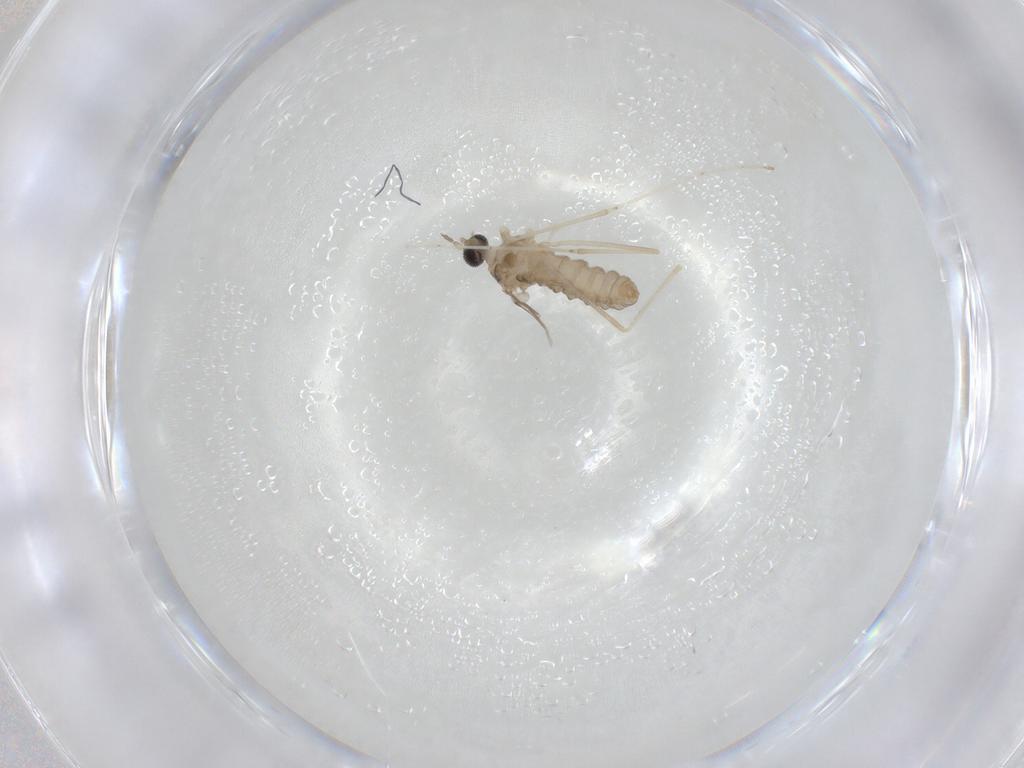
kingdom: Animalia
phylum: Arthropoda
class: Insecta
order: Diptera
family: Cecidomyiidae
